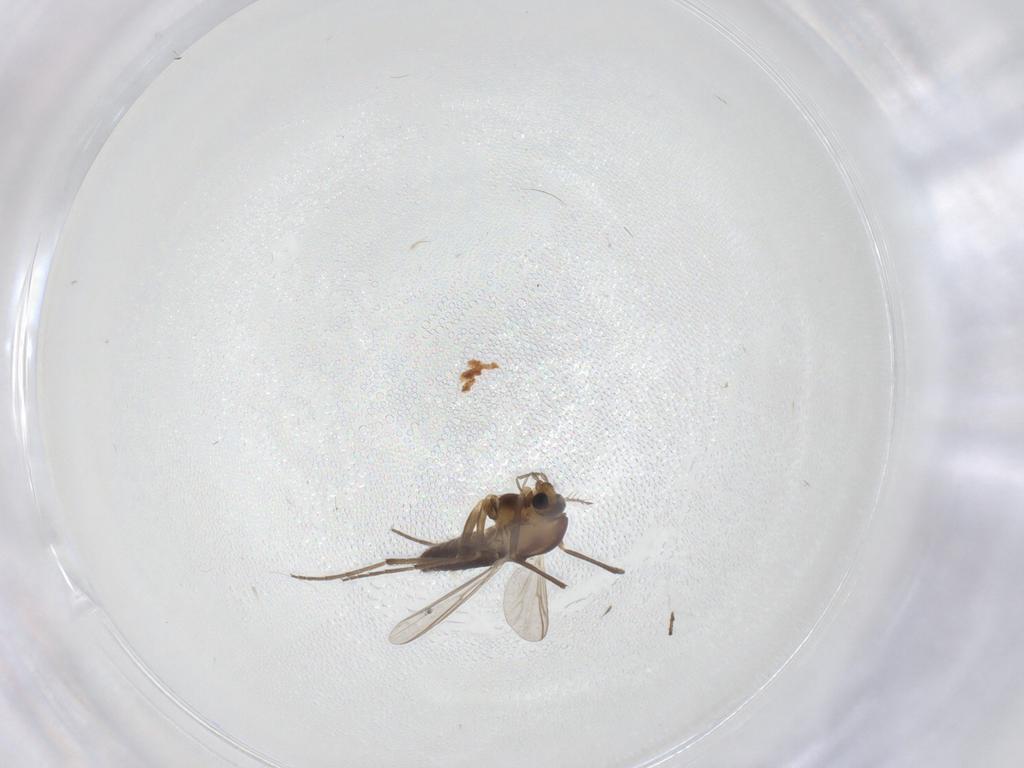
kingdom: Animalia
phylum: Arthropoda
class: Insecta
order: Diptera
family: Chironomidae
